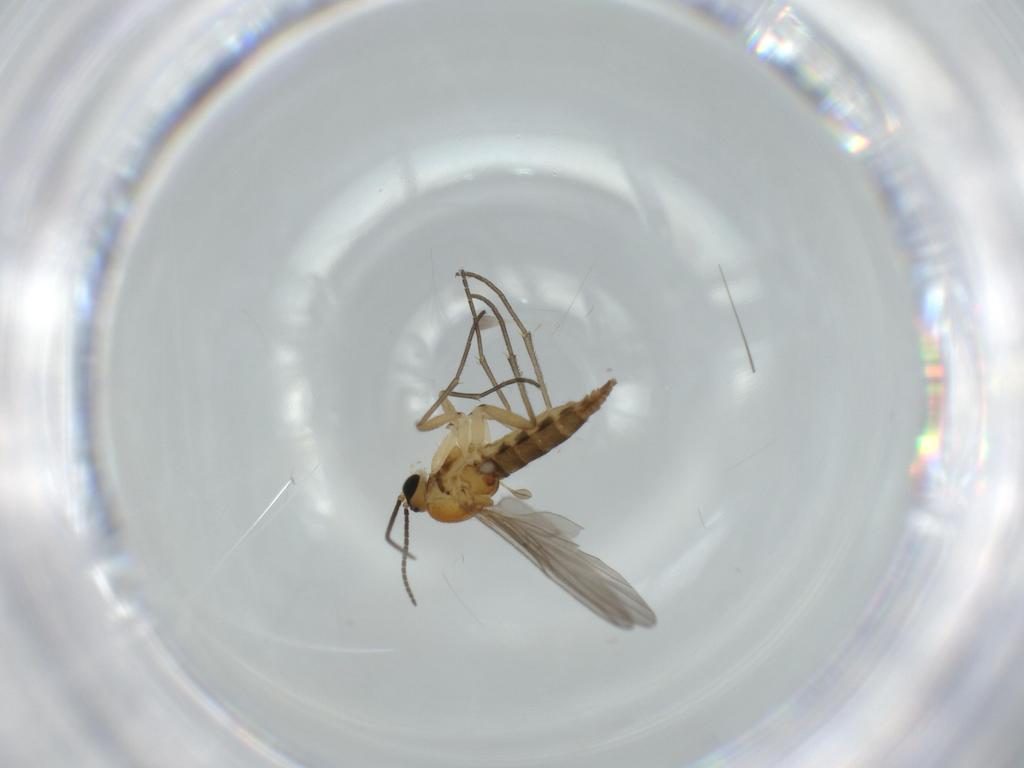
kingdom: Animalia
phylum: Arthropoda
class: Insecta
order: Diptera
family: Sciaridae
